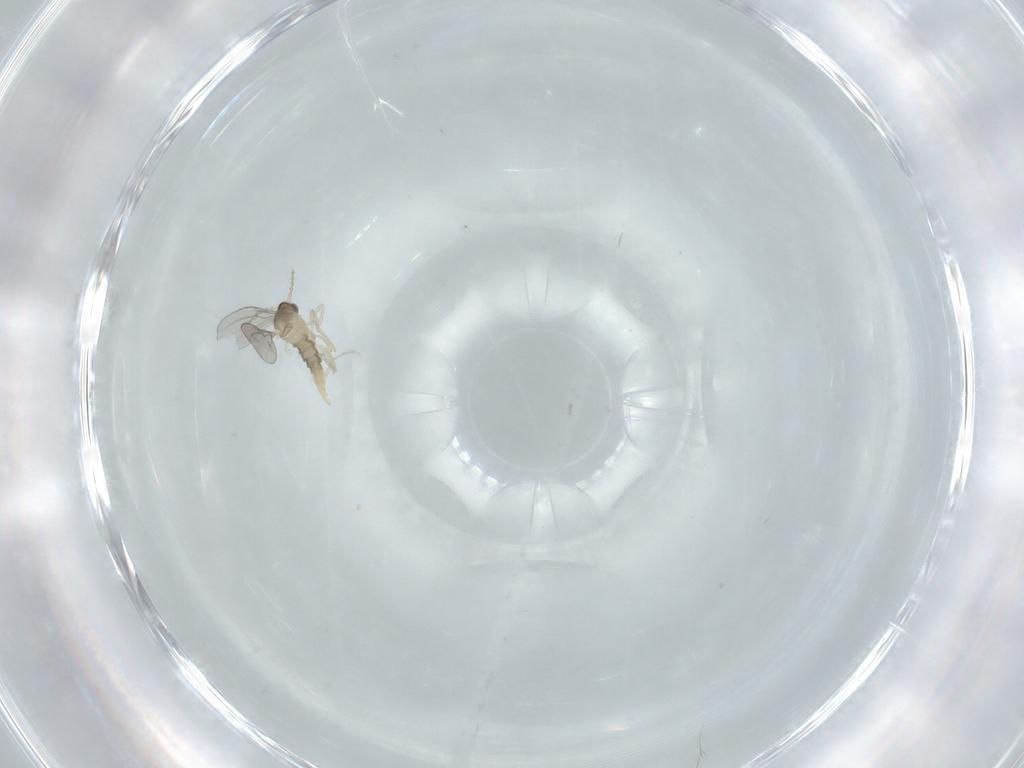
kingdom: Animalia
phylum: Arthropoda
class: Insecta
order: Diptera
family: Cecidomyiidae
